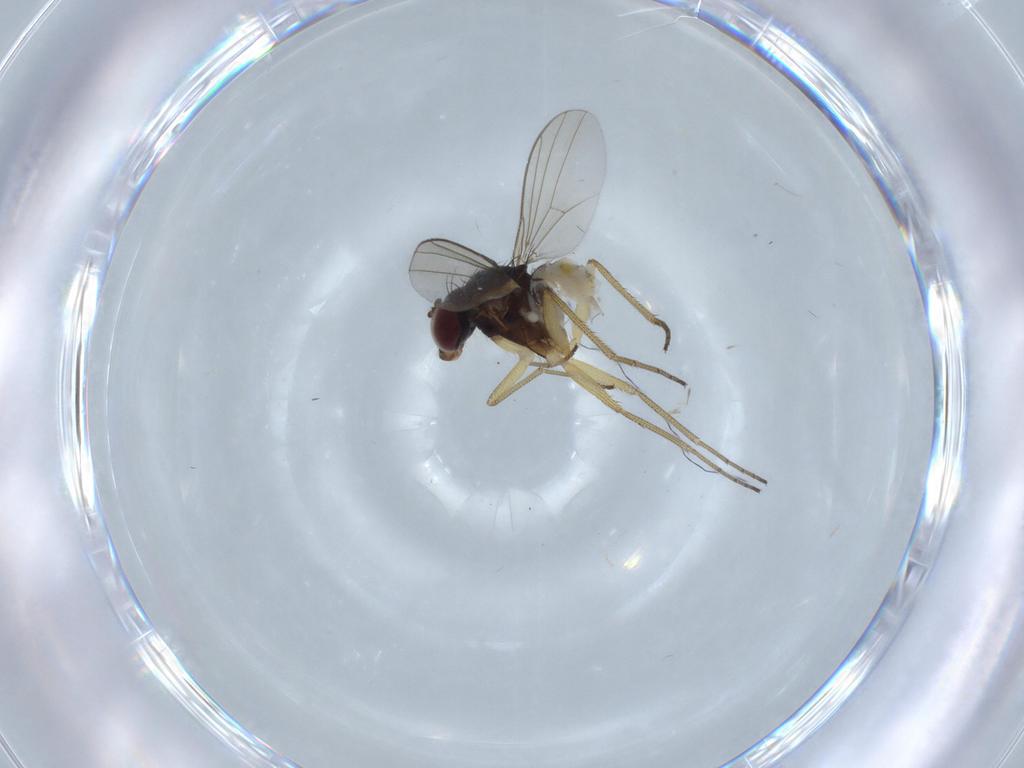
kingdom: Animalia
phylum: Arthropoda
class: Insecta
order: Diptera
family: Dolichopodidae
